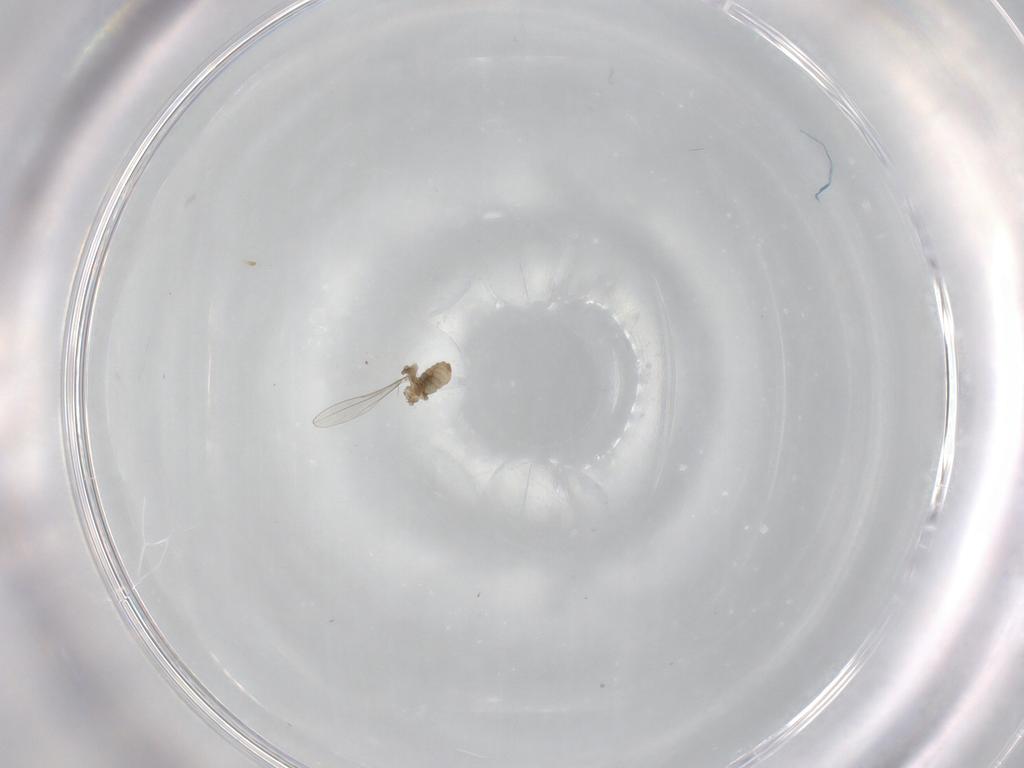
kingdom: Animalia
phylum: Arthropoda
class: Insecta
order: Diptera
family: Cecidomyiidae
